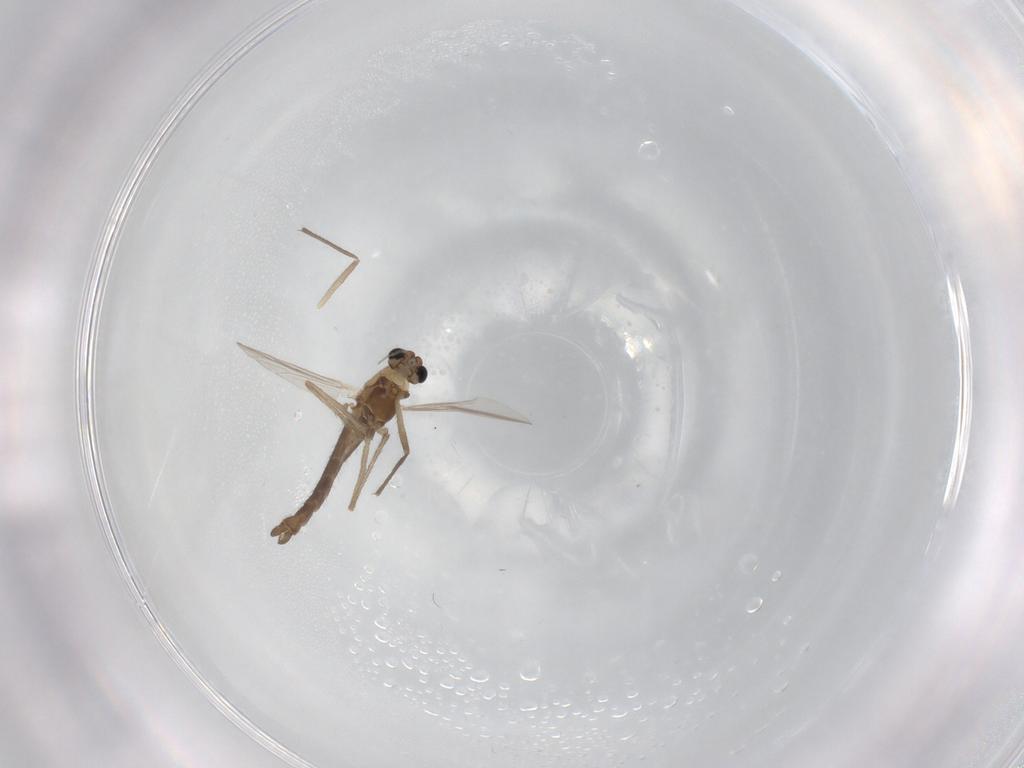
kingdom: Animalia
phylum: Arthropoda
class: Insecta
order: Diptera
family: Chironomidae
